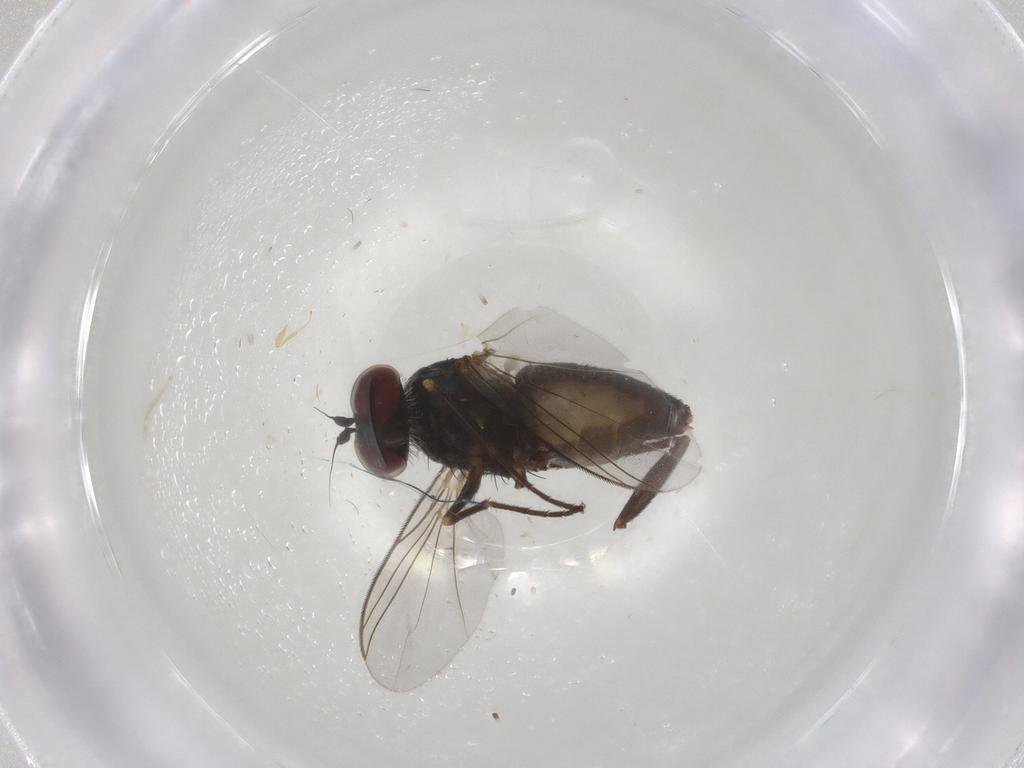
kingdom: Animalia
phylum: Arthropoda
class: Insecta
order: Diptera
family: Dolichopodidae
